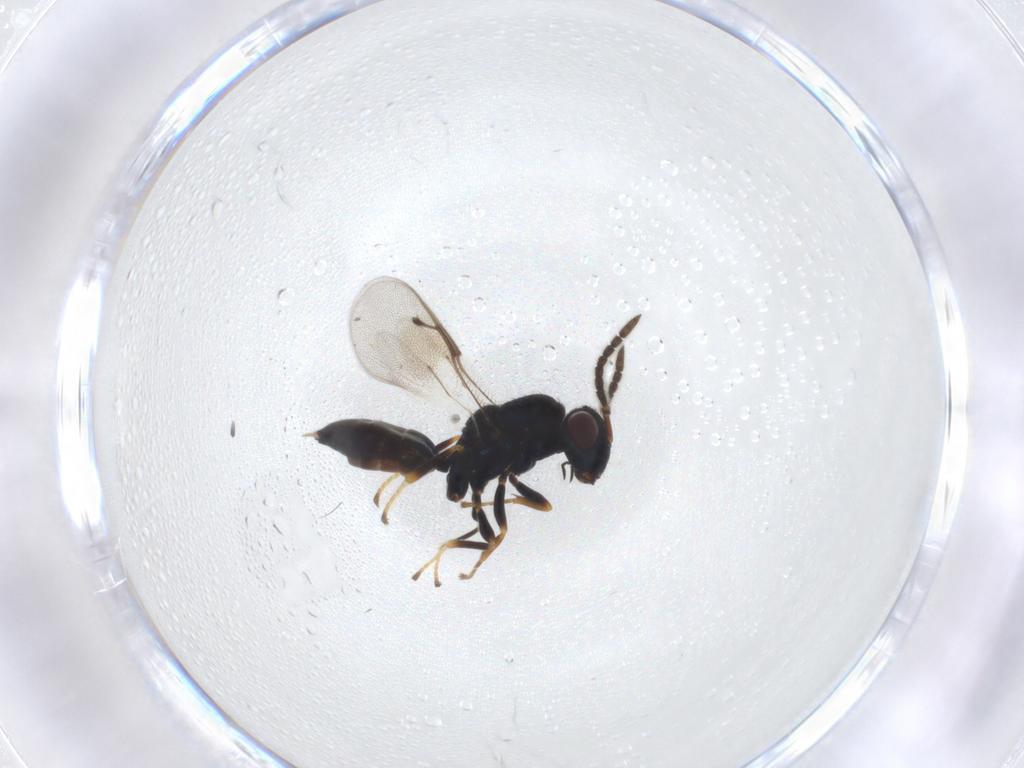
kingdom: Animalia
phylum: Arthropoda
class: Insecta
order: Hymenoptera
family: Pteromalidae
